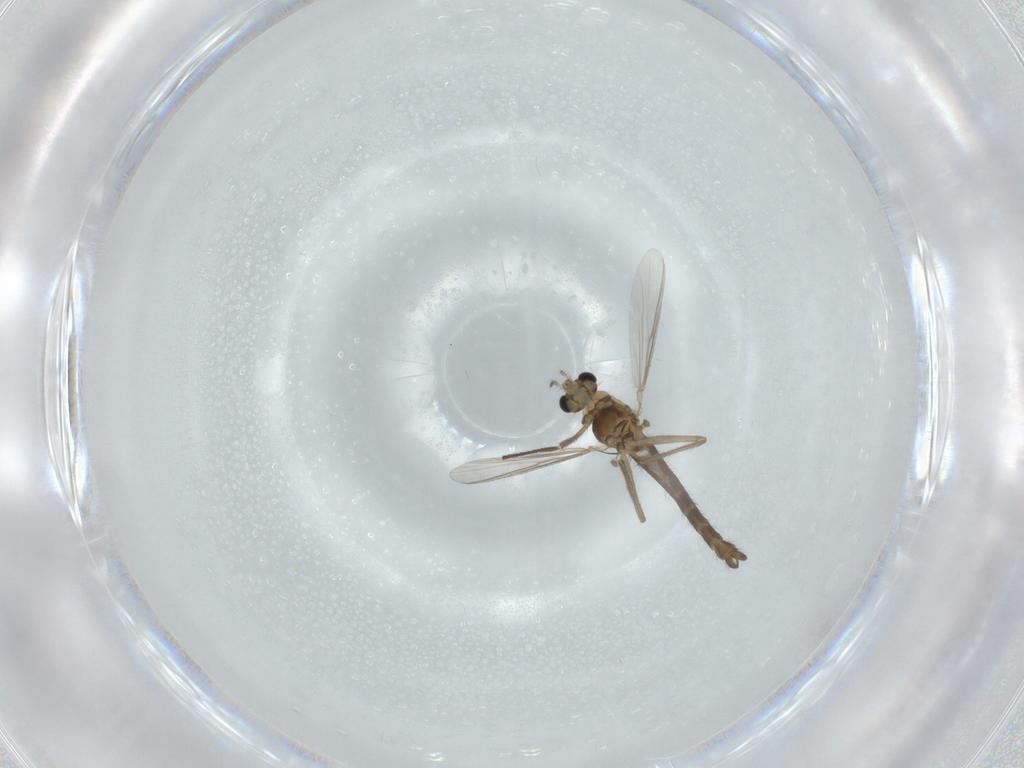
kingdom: Animalia
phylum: Arthropoda
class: Insecta
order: Diptera
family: Chironomidae
